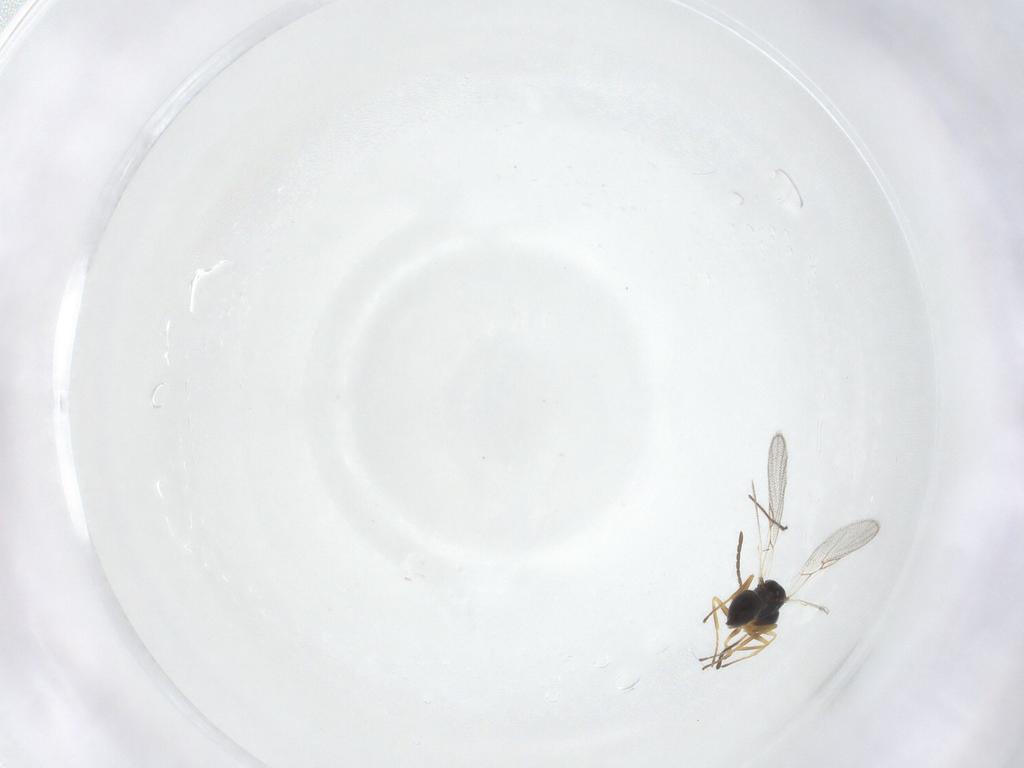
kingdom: Animalia
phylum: Arthropoda
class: Insecta
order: Hymenoptera
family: Figitidae
